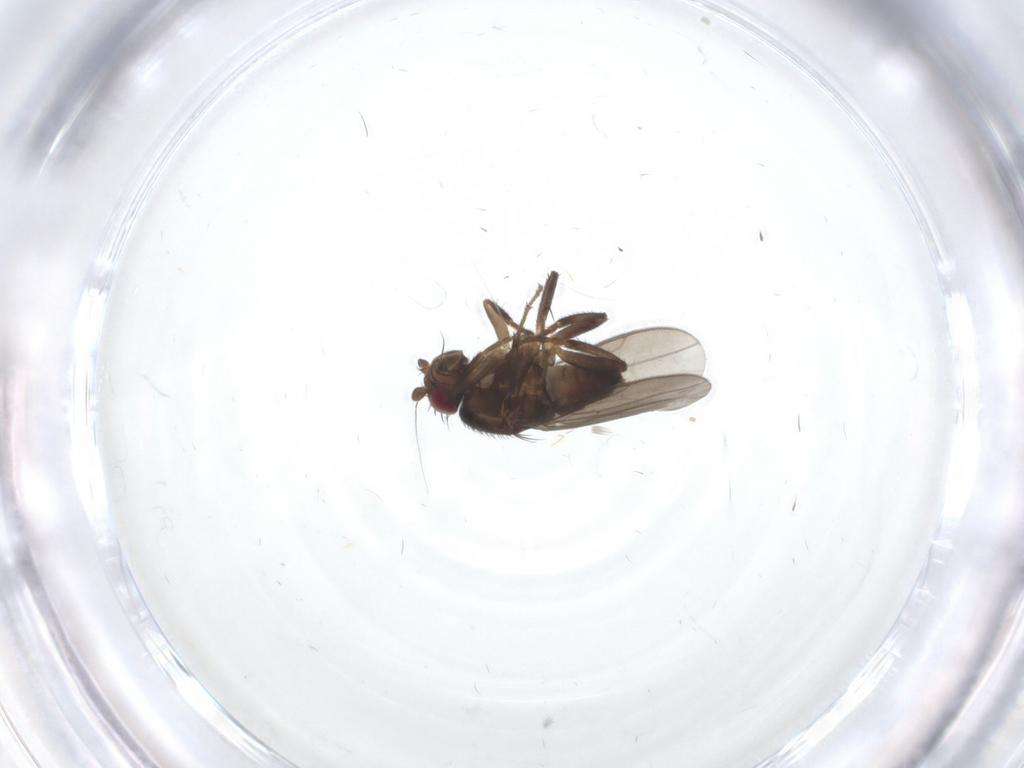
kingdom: Animalia
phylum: Arthropoda
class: Insecta
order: Diptera
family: Sphaeroceridae
